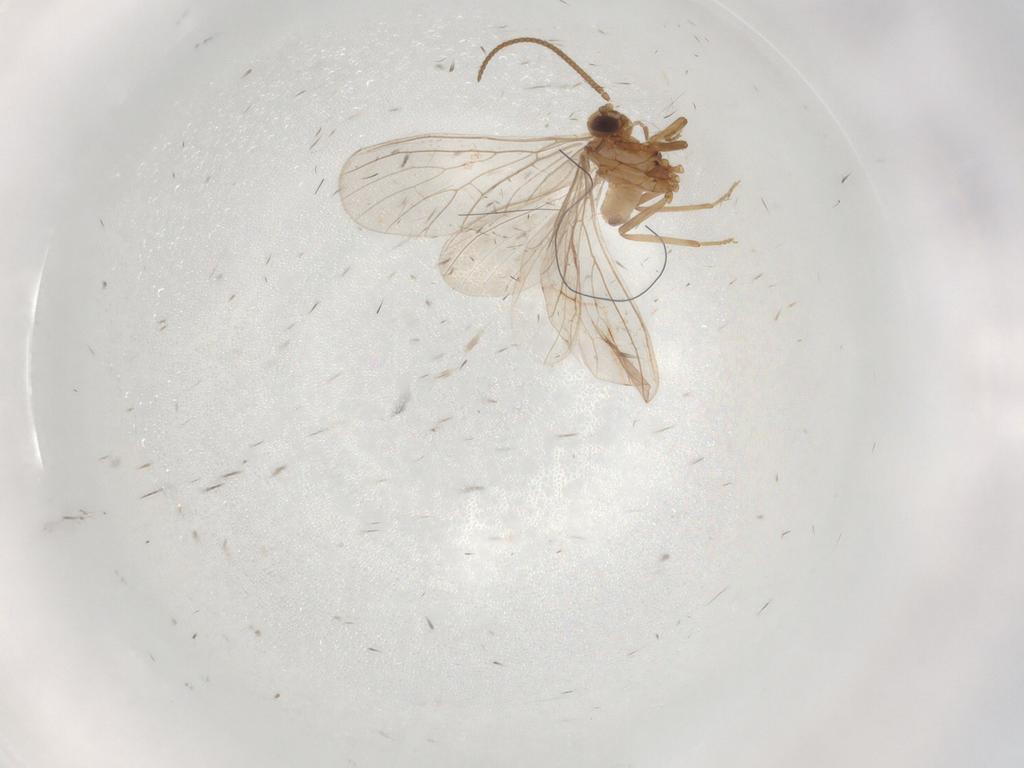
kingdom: Animalia
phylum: Arthropoda
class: Insecta
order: Neuroptera
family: Coniopterygidae
